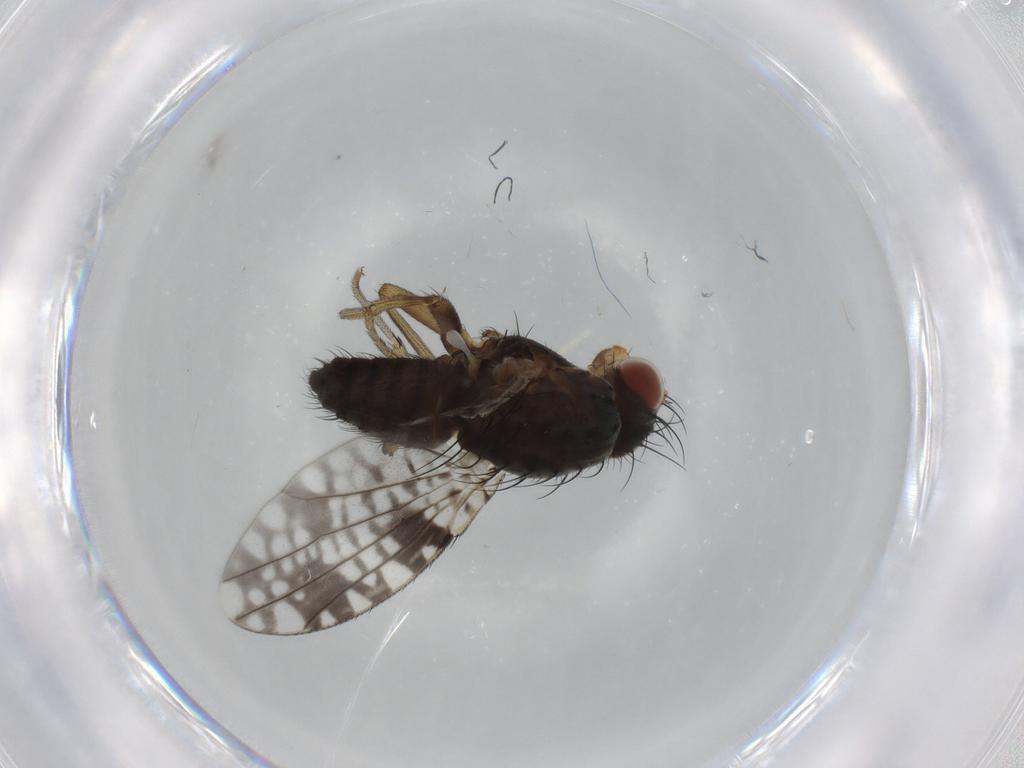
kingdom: Animalia
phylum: Arthropoda
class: Insecta
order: Diptera
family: Tephritidae
